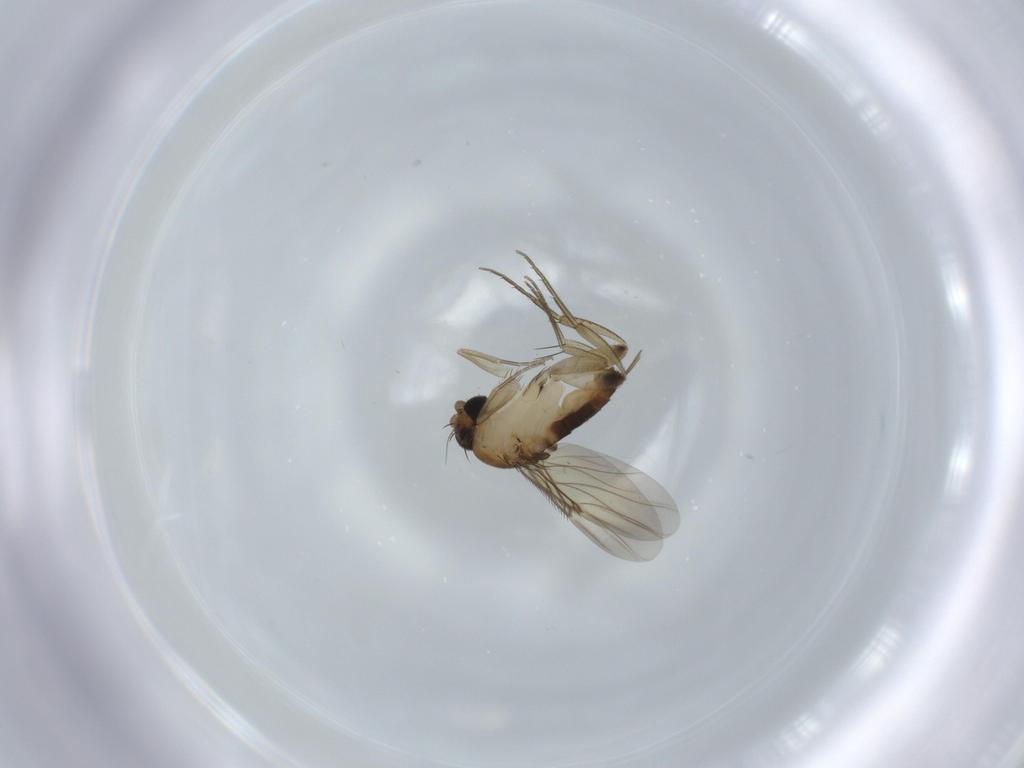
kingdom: Animalia
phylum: Arthropoda
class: Insecta
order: Diptera
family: Phoridae
